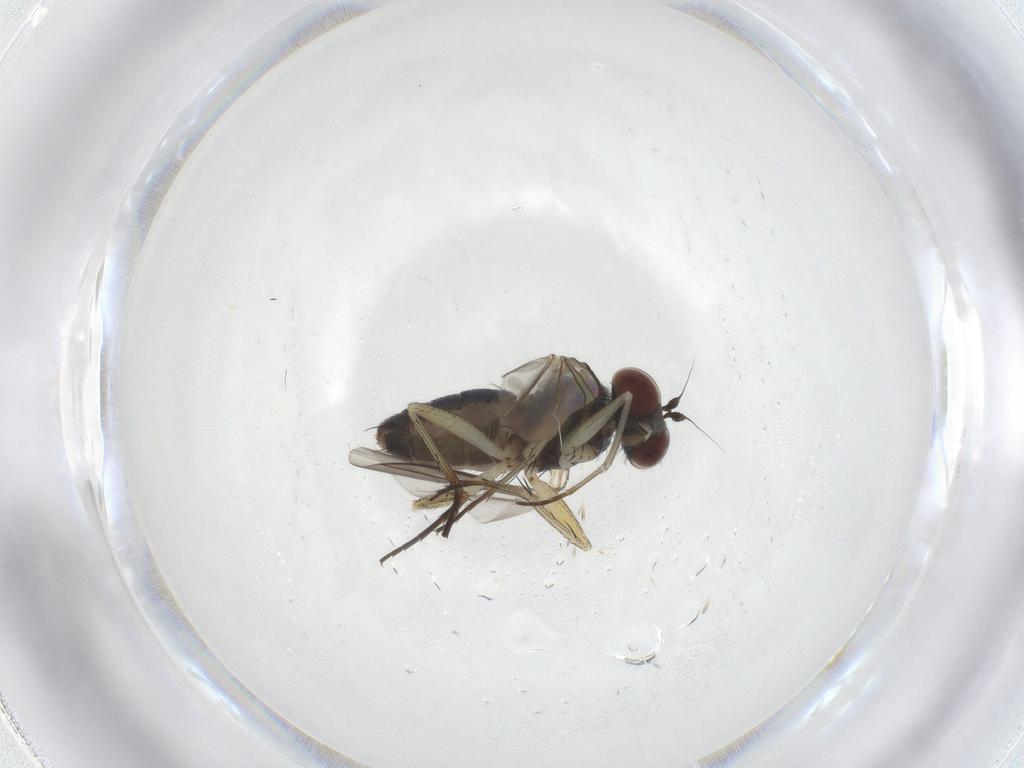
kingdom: Animalia
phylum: Arthropoda
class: Insecta
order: Diptera
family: Dolichopodidae
